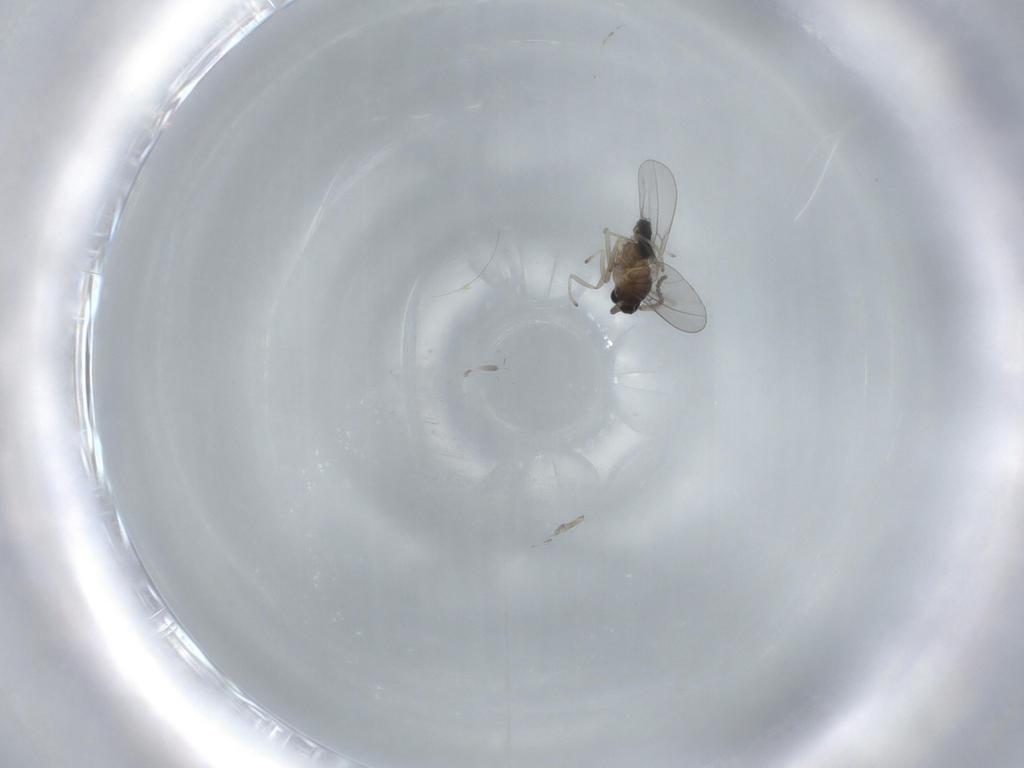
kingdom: Animalia
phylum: Arthropoda
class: Insecta
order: Diptera
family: Cecidomyiidae
